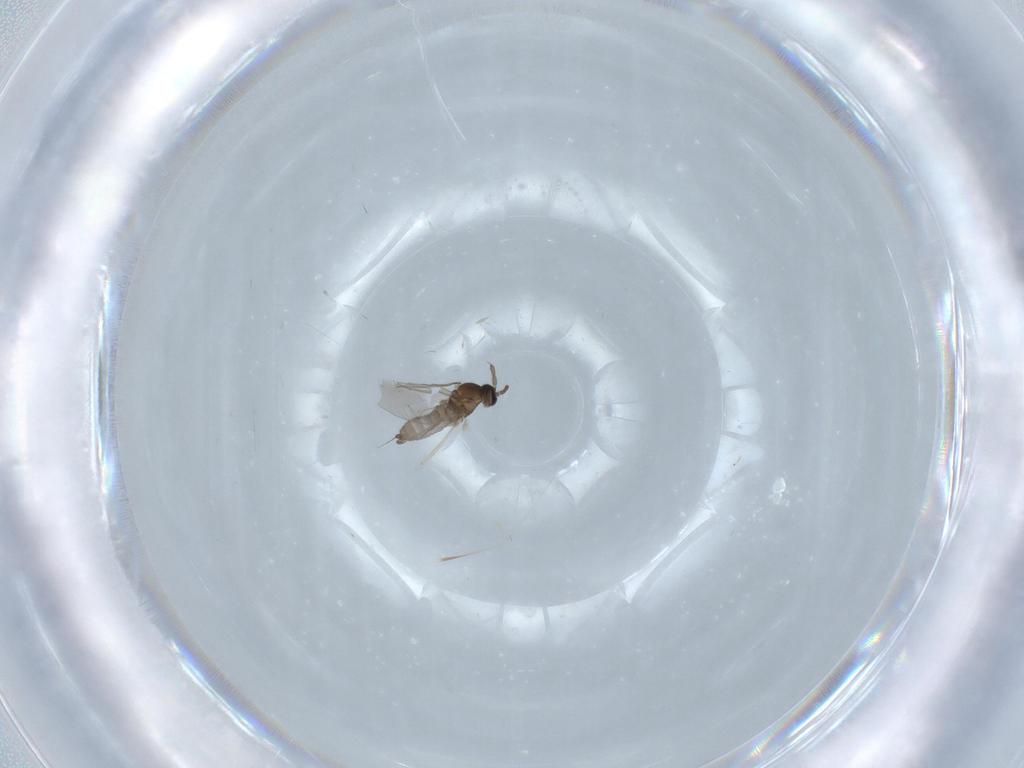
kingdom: Animalia
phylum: Arthropoda
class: Insecta
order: Diptera
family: Cecidomyiidae
